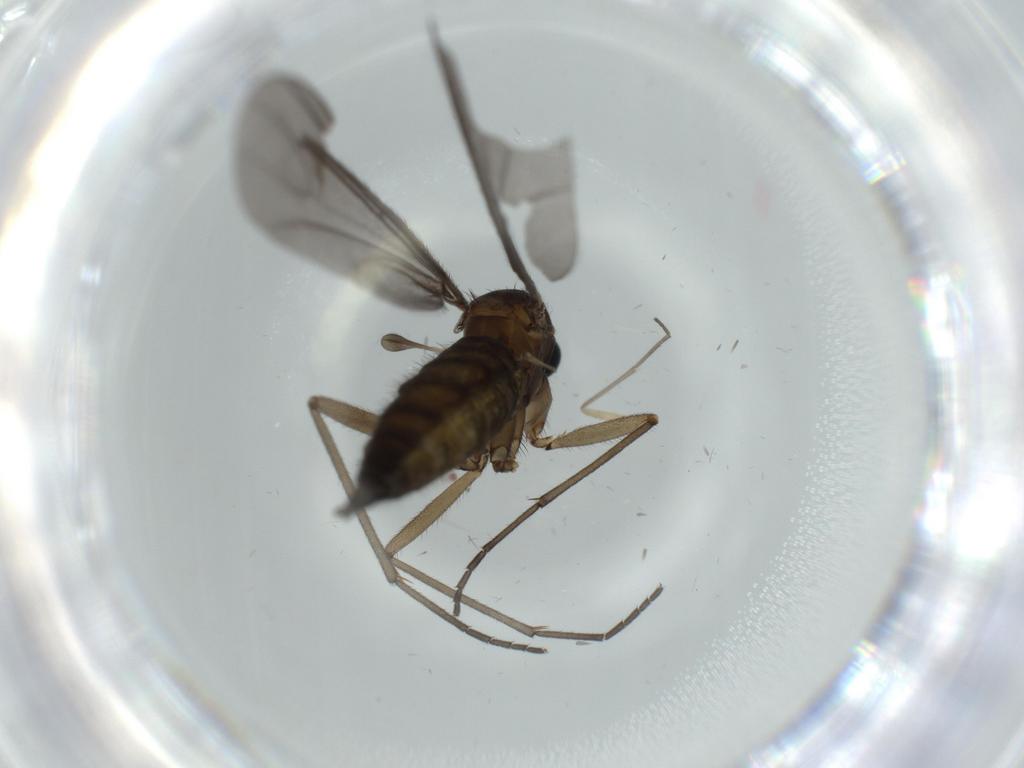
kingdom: Animalia
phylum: Arthropoda
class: Insecta
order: Diptera
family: Sciaridae
